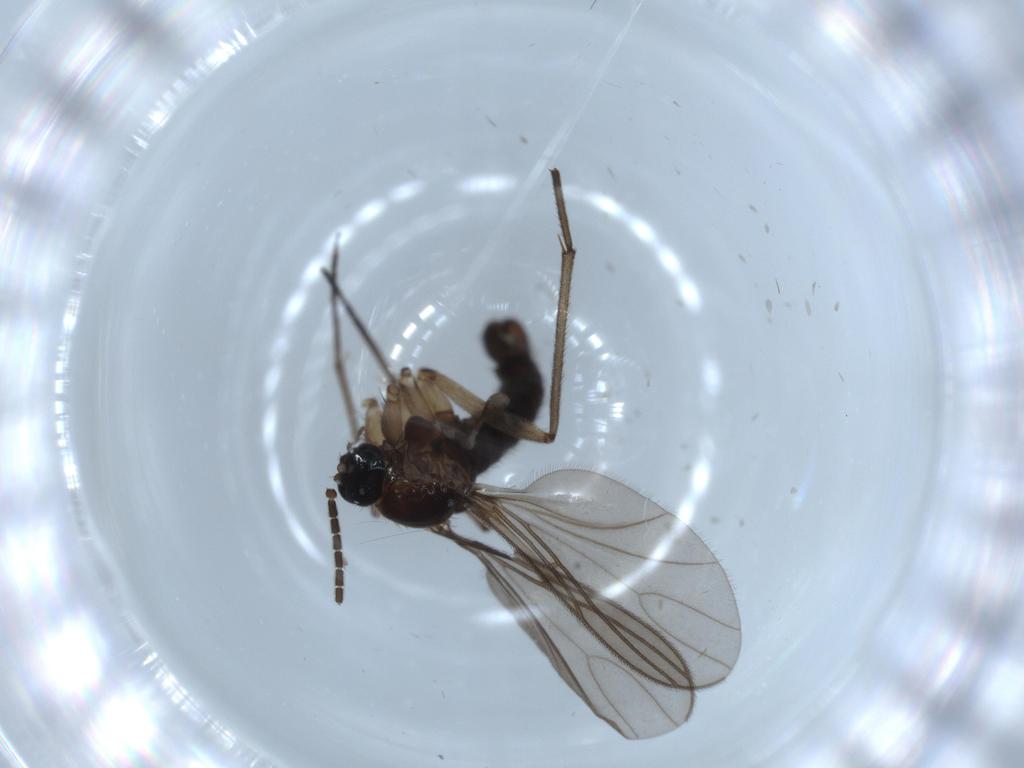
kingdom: Animalia
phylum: Arthropoda
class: Insecta
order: Diptera
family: Sciaridae
